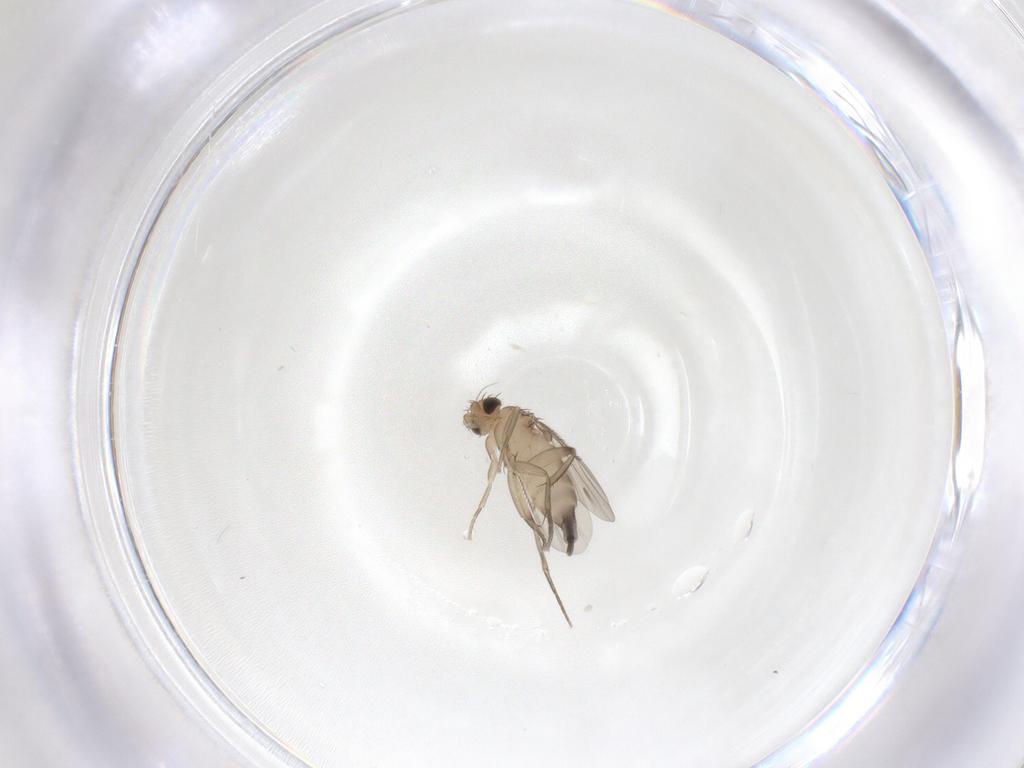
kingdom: Animalia
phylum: Arthropoda
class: Insecta
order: Diptera
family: Phoridae
